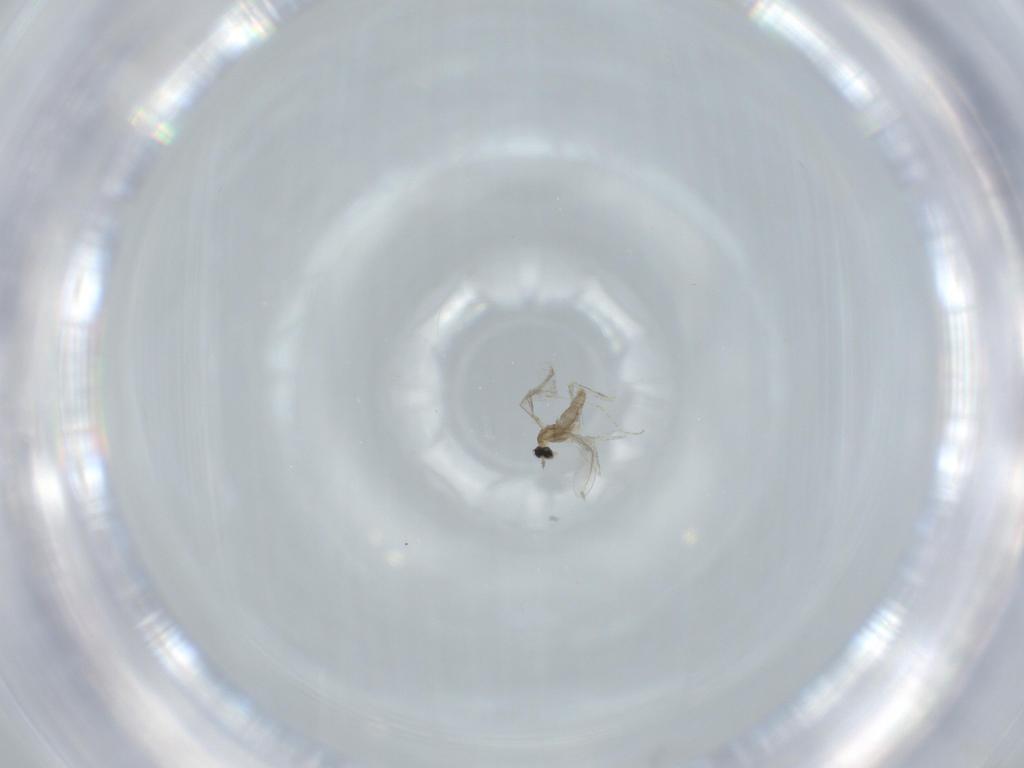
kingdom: Animalia
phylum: Arthropoda
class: Insecta
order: Diptera
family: Cecidomyiidae
